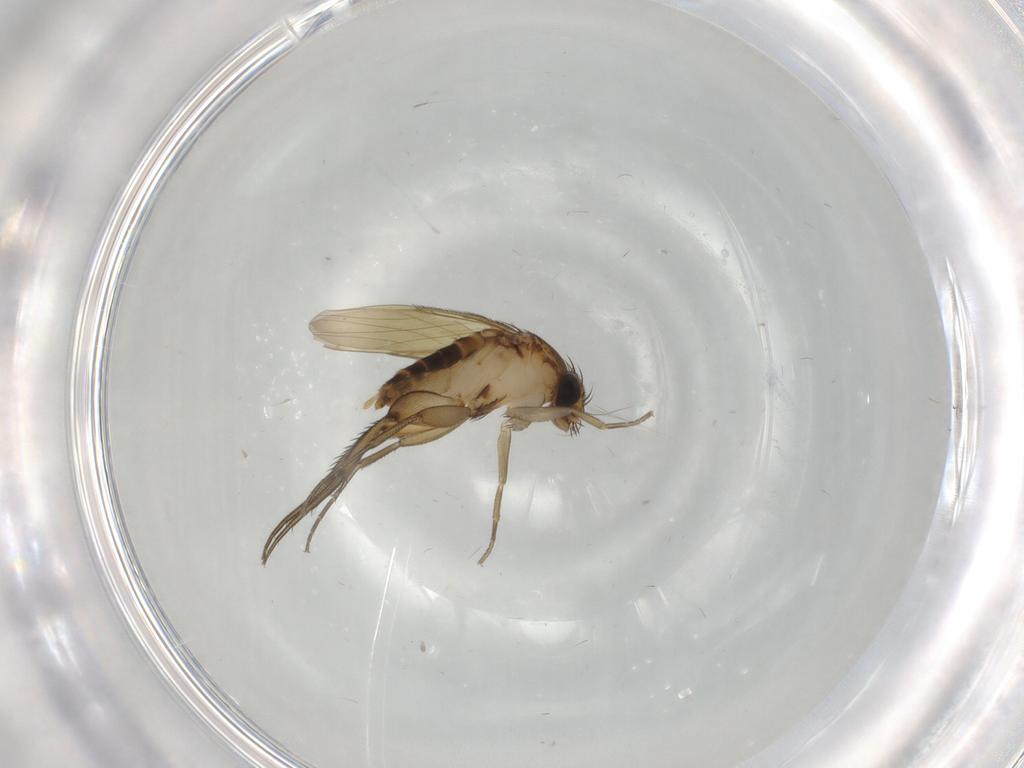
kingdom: Animalia
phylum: Arthropoda
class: Insecta
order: Diptera
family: Phoridae
